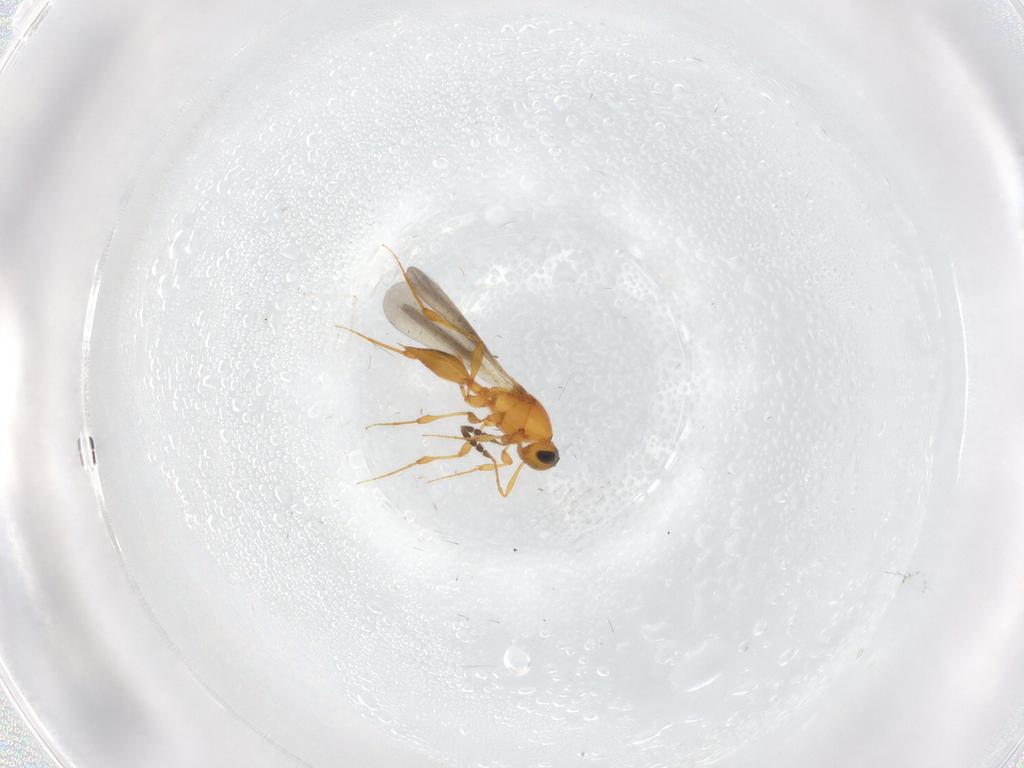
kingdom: Animalia
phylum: Arthropoda
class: Insecta
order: Hymenoptera
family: Platygastridae
